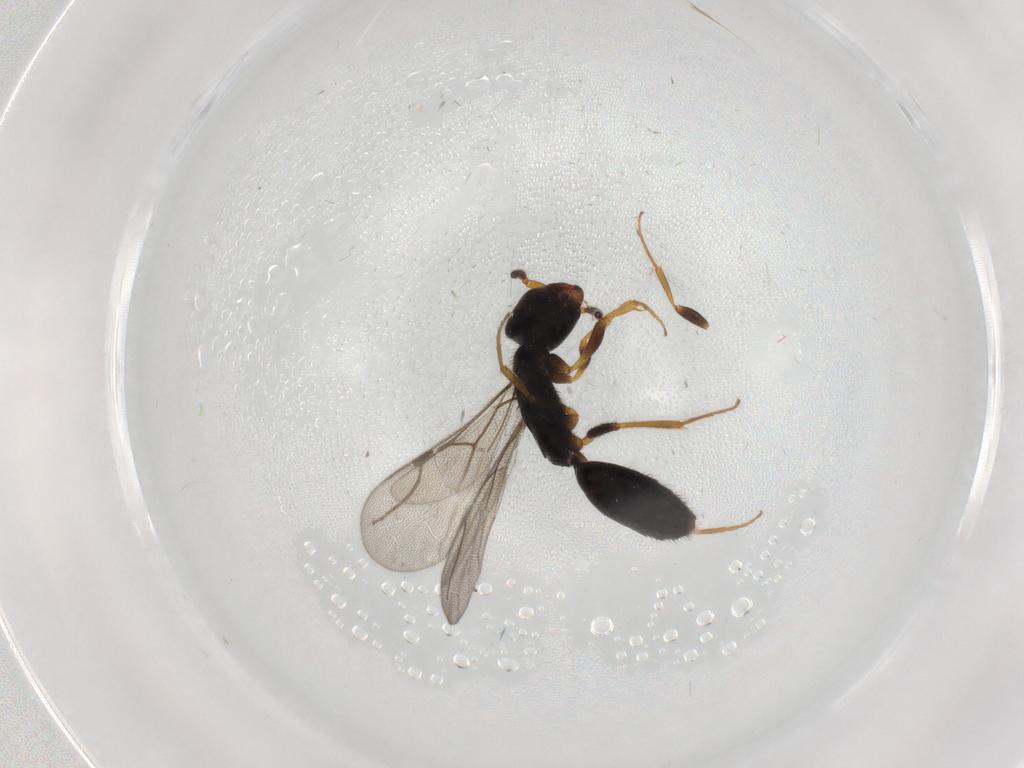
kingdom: Animalia
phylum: Arthropoda
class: Insecta
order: Hymenoptera
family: Bethylidae
